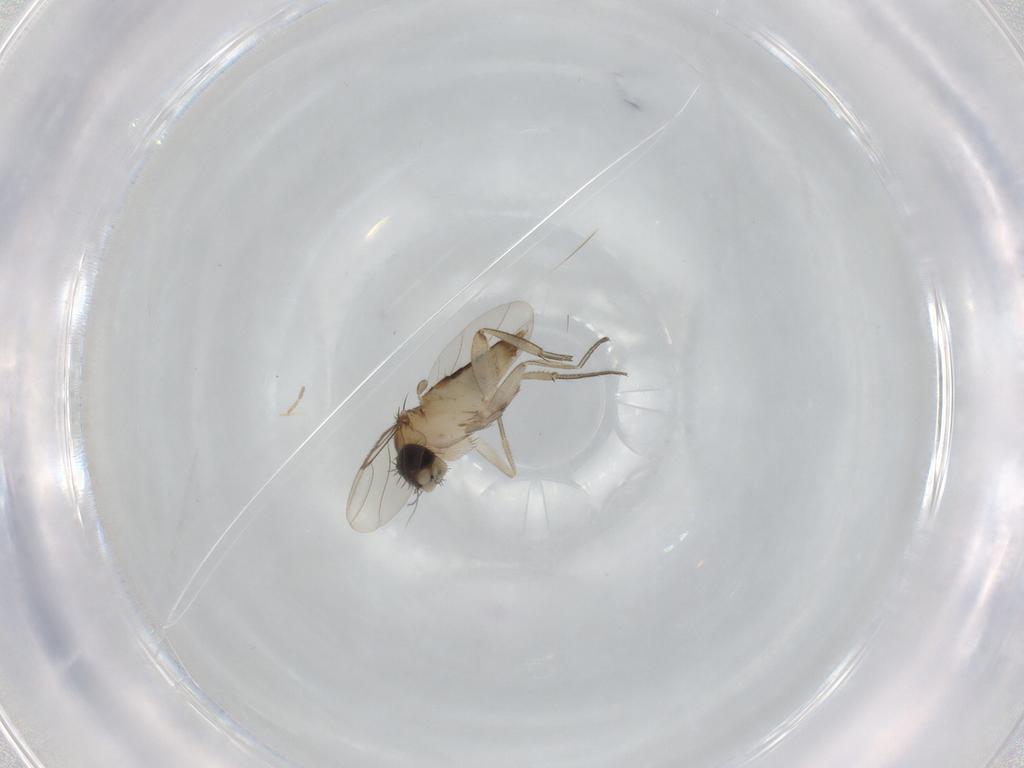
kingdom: Animalia
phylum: Arthropoda
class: Insecta
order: Diptera
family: Phoridae
